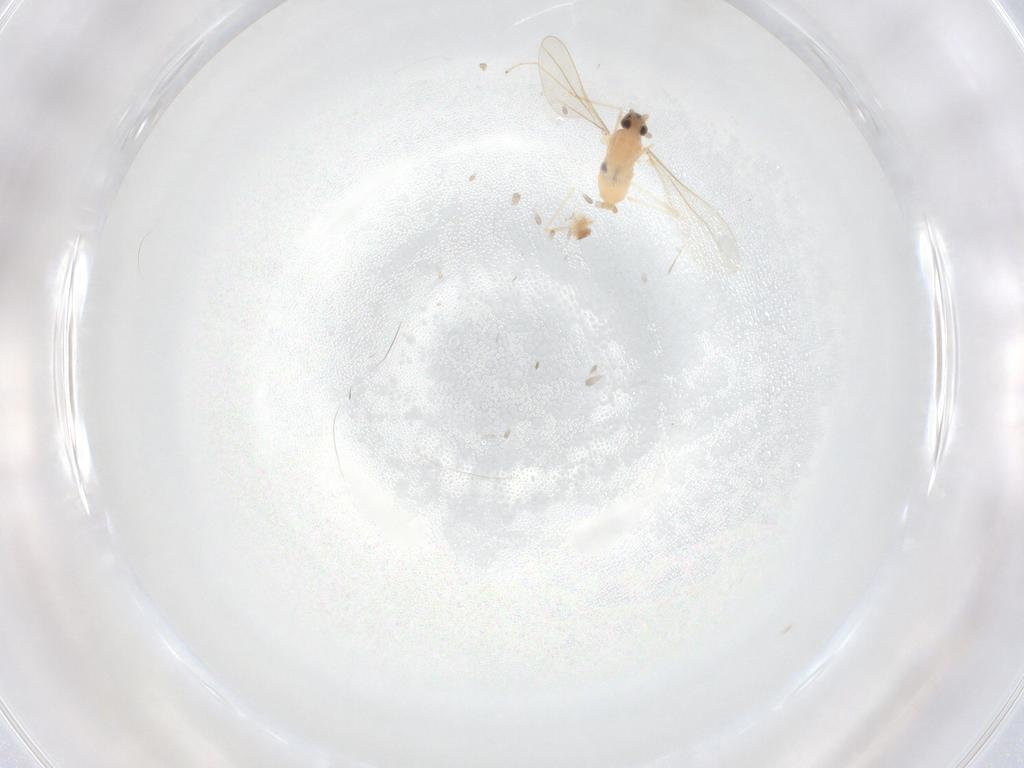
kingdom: Animalia
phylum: Arthropoda
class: Insecta
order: Diptera
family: Cecidomyiidae
